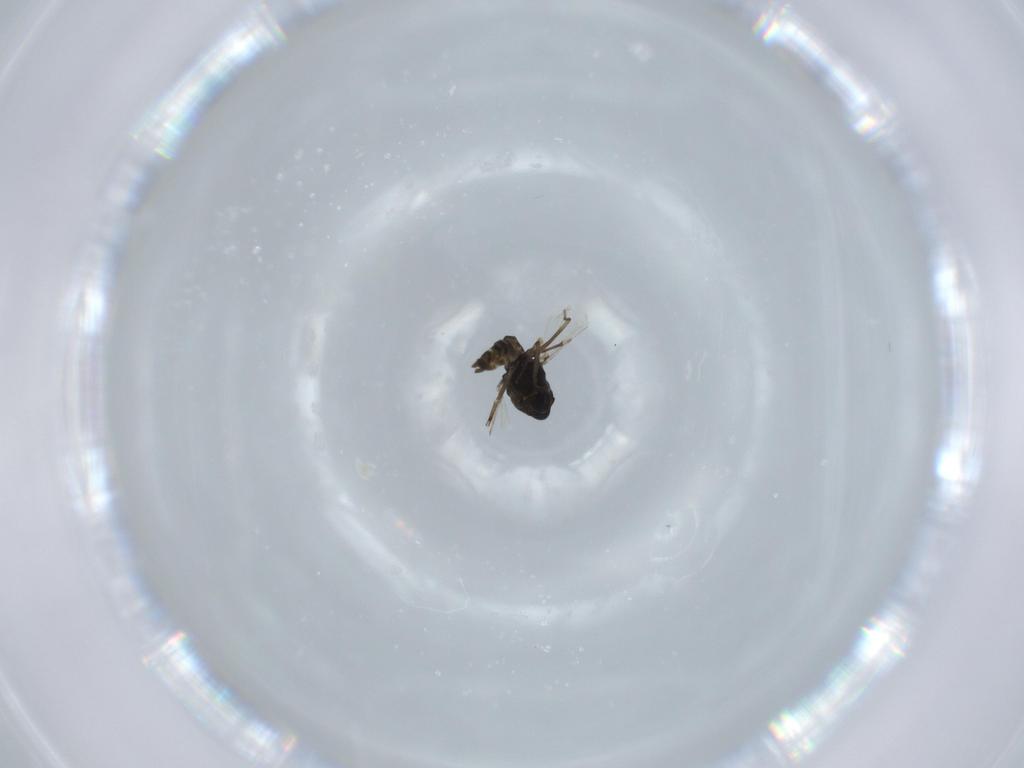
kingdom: Animalia
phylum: Arthropoda
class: Insecta
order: Diptera
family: Chironomidae
